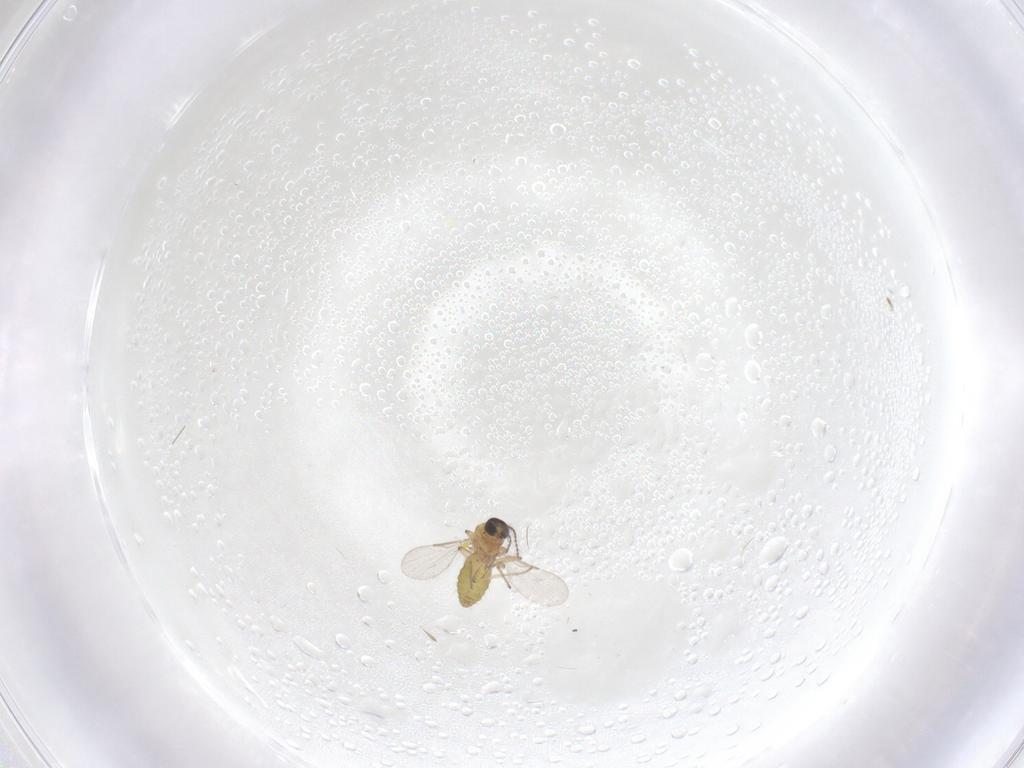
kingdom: Animalia
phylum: Arthropoda
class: Insecta
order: Diptera
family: Ceratopogonidae
